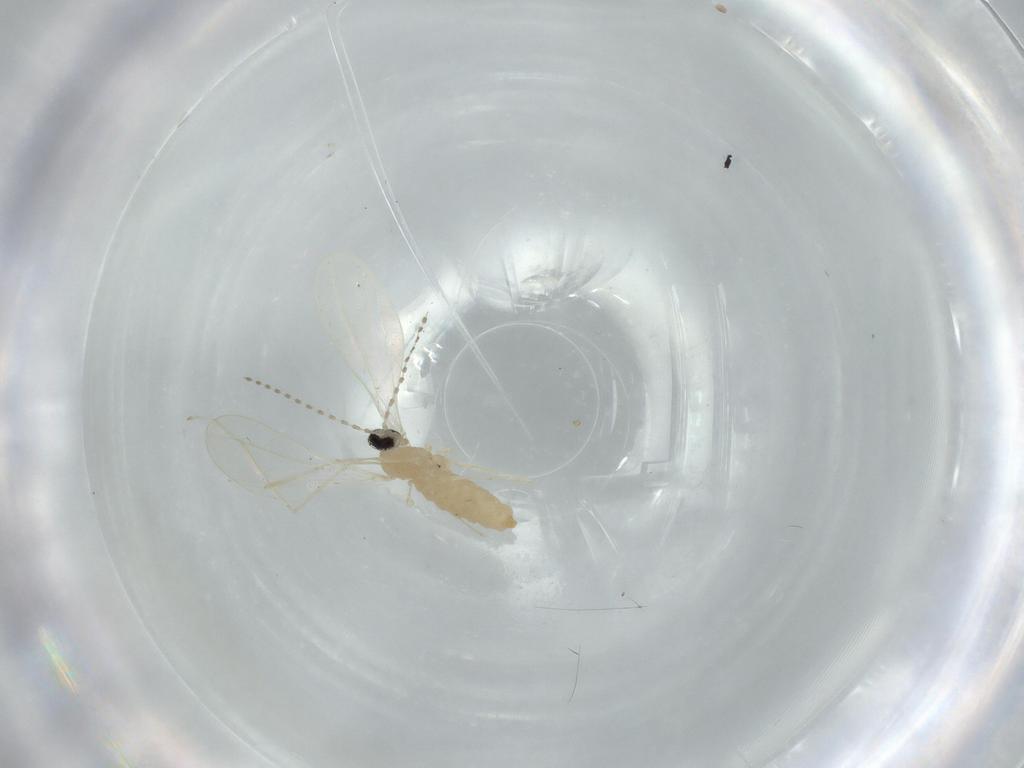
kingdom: Animalia
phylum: Arthropoda
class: Insecta
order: Diptera
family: Cecidomyiidae
